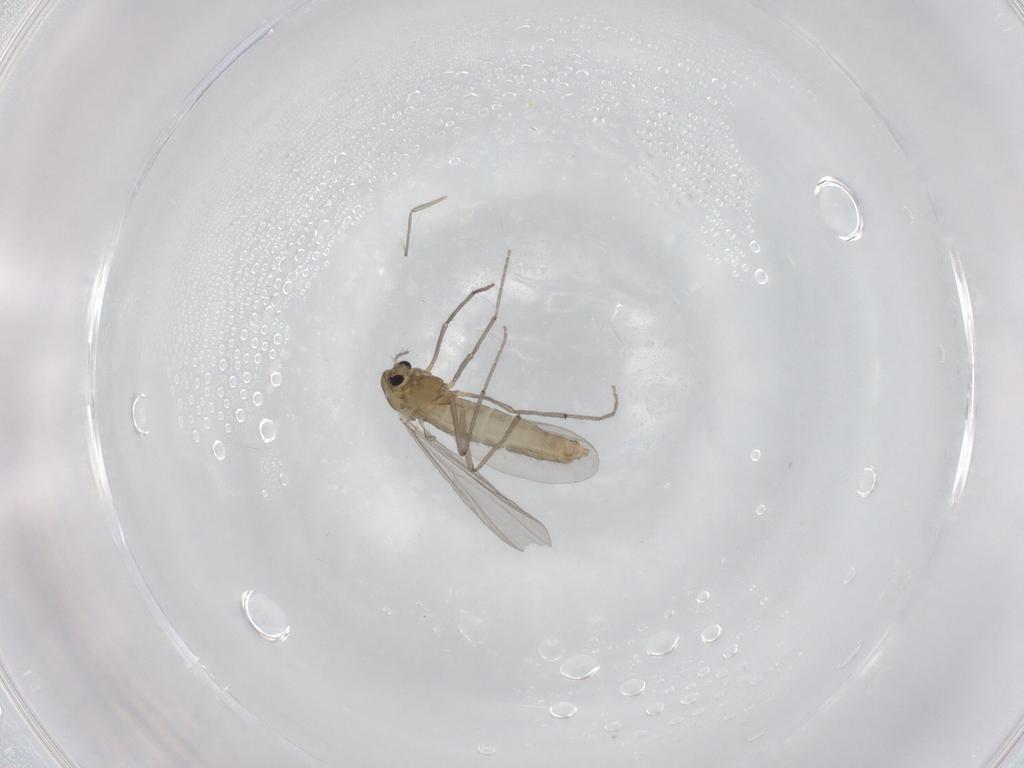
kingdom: Animalia
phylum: Arthropoda
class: Insecta
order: Diptera
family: Chironomidae
